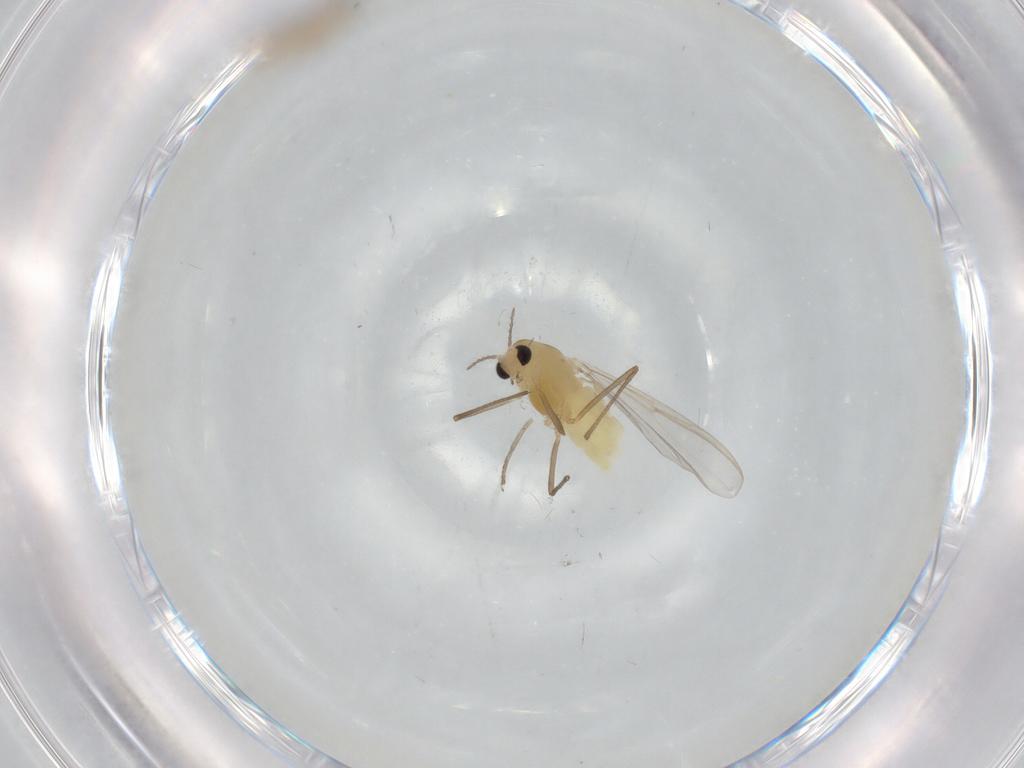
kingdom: Animalia
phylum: Arthropoda
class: Insecta
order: Diptera
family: Chironomidae
